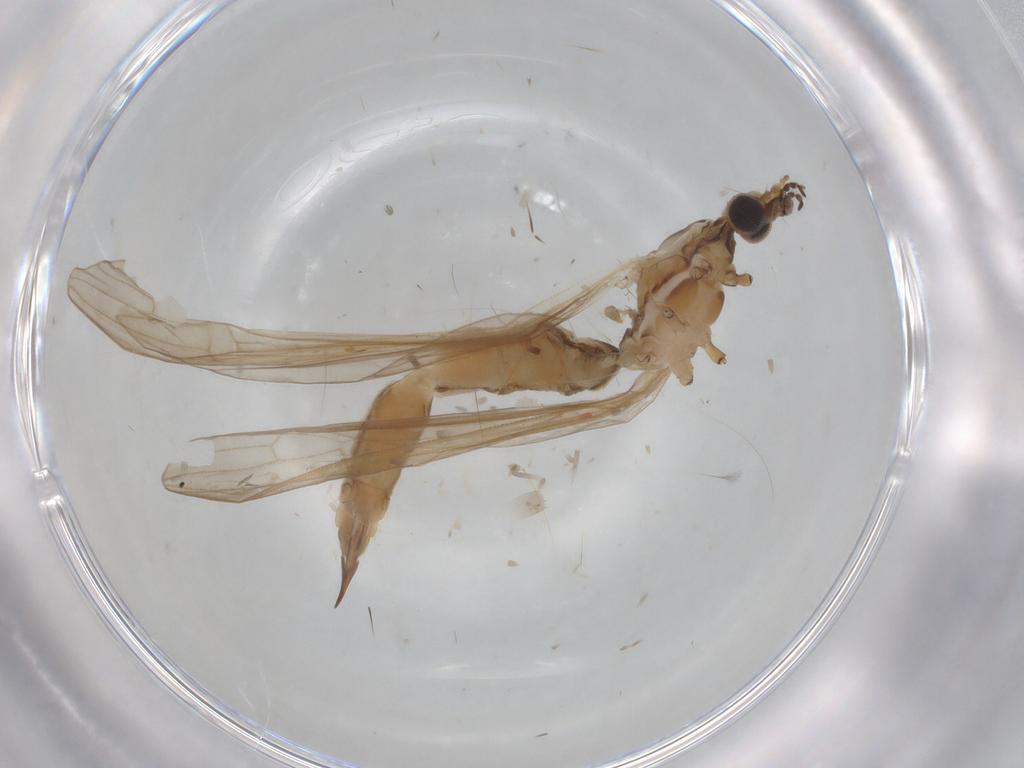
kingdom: Animalia
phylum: Arthropoda
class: Insecta
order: Diptera
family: Limoniidae
